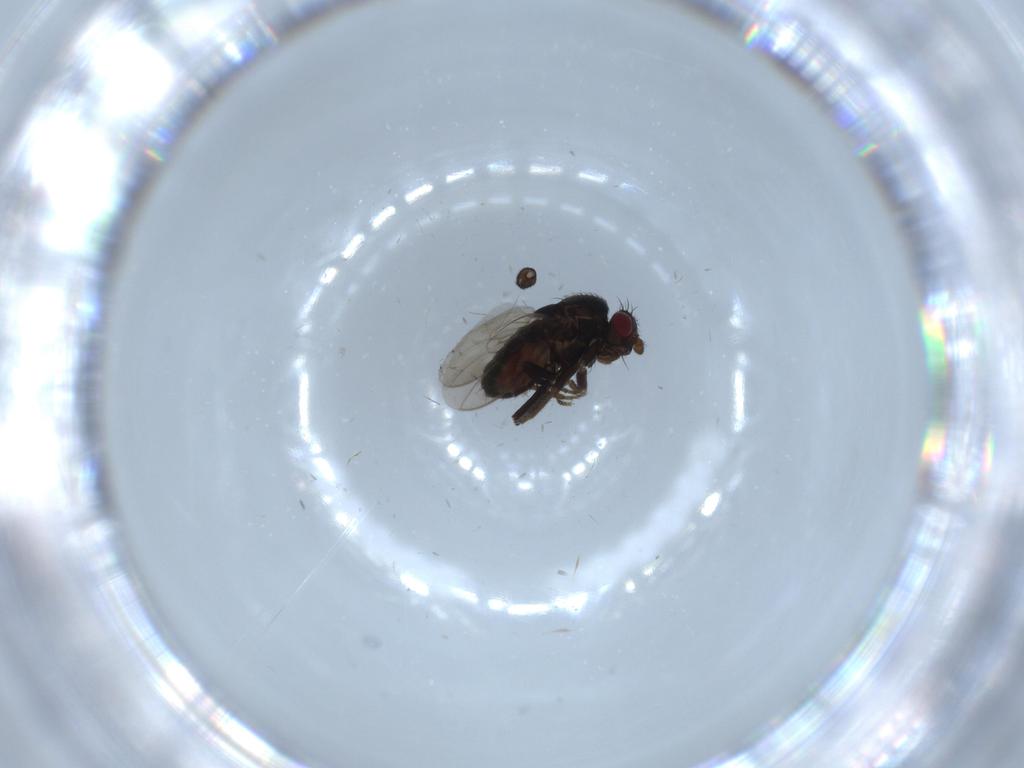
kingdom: Animalia
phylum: Arthropoda
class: Insecta
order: Diptera
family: Sphaeroceridae
